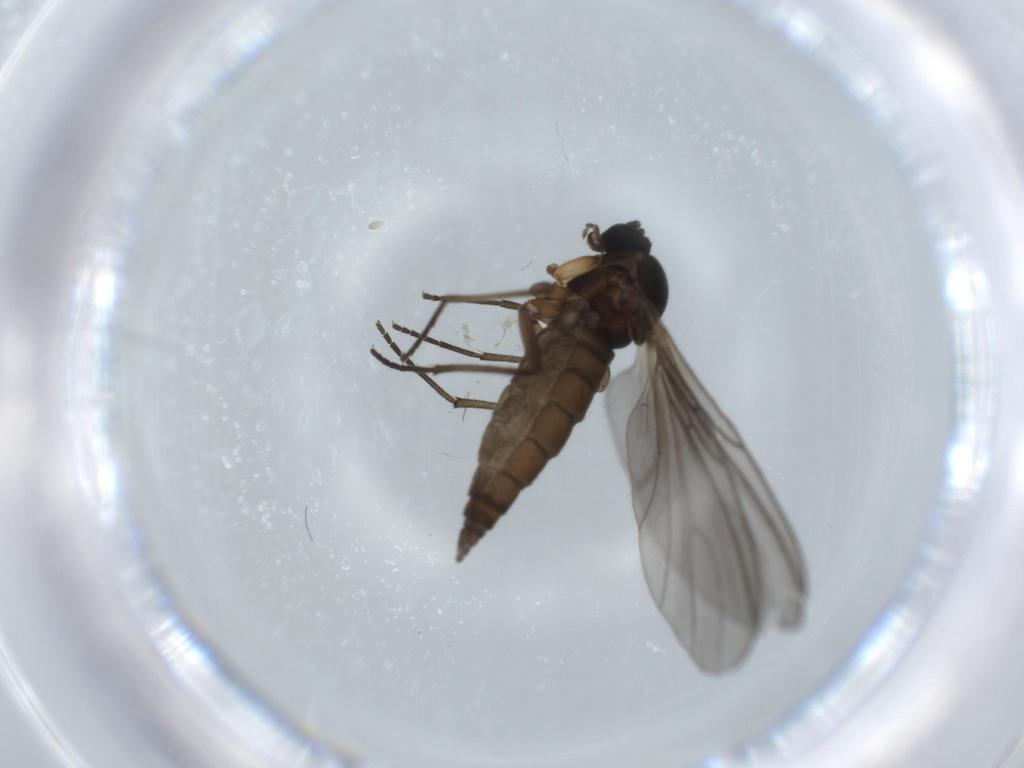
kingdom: Animalia
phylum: Arthropoda
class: Insecta
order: Diptera
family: Sciaridae
